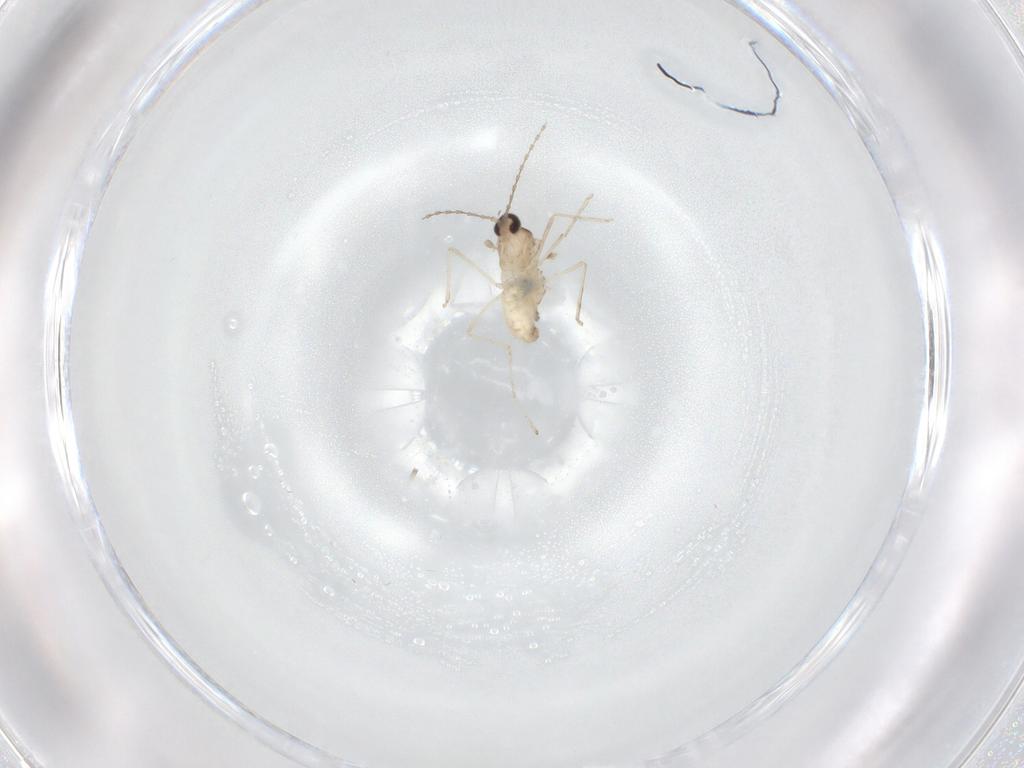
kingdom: Animalia
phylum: Arthropoda
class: Insecta
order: Diptera
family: Cecidomyiidae
